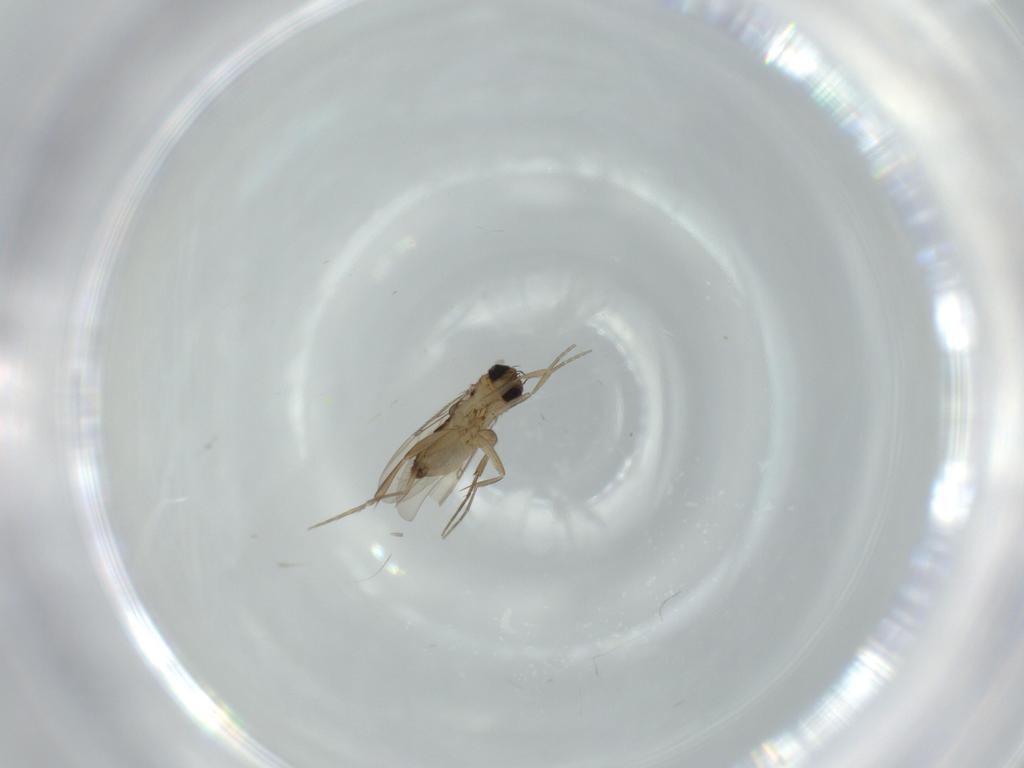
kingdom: Animalia
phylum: Arthropoda
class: Insecta
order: Diptera
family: Phoridae
